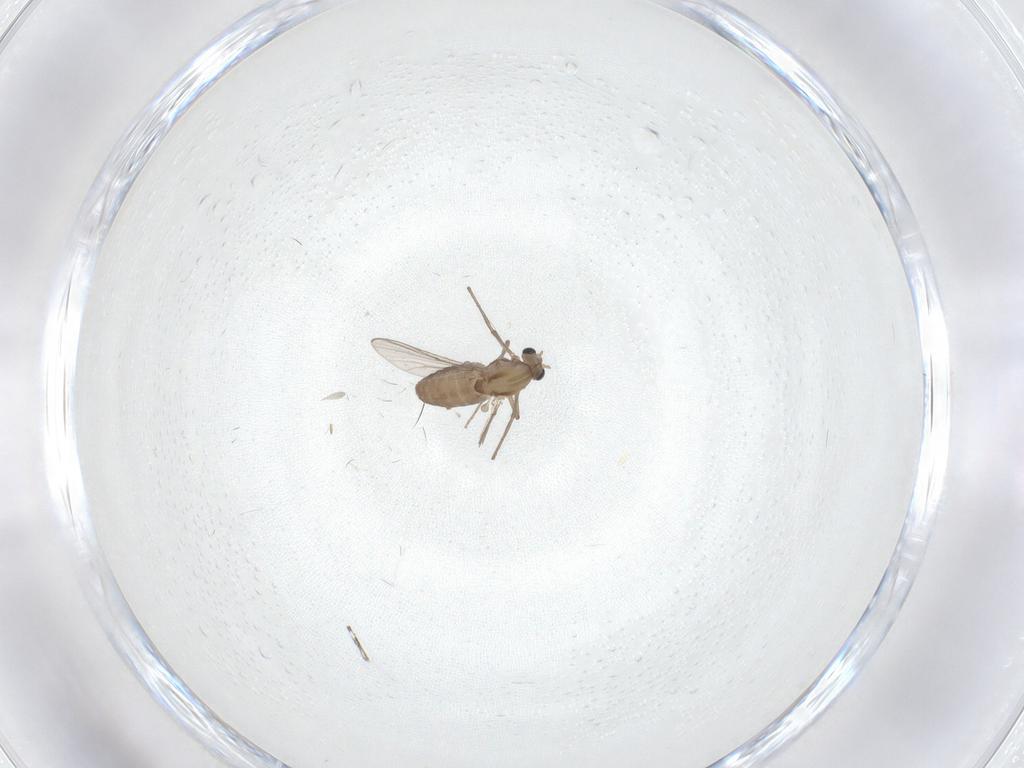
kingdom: Animalia
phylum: Arthropoda
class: Insecta
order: Diptera
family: Chironomidae
